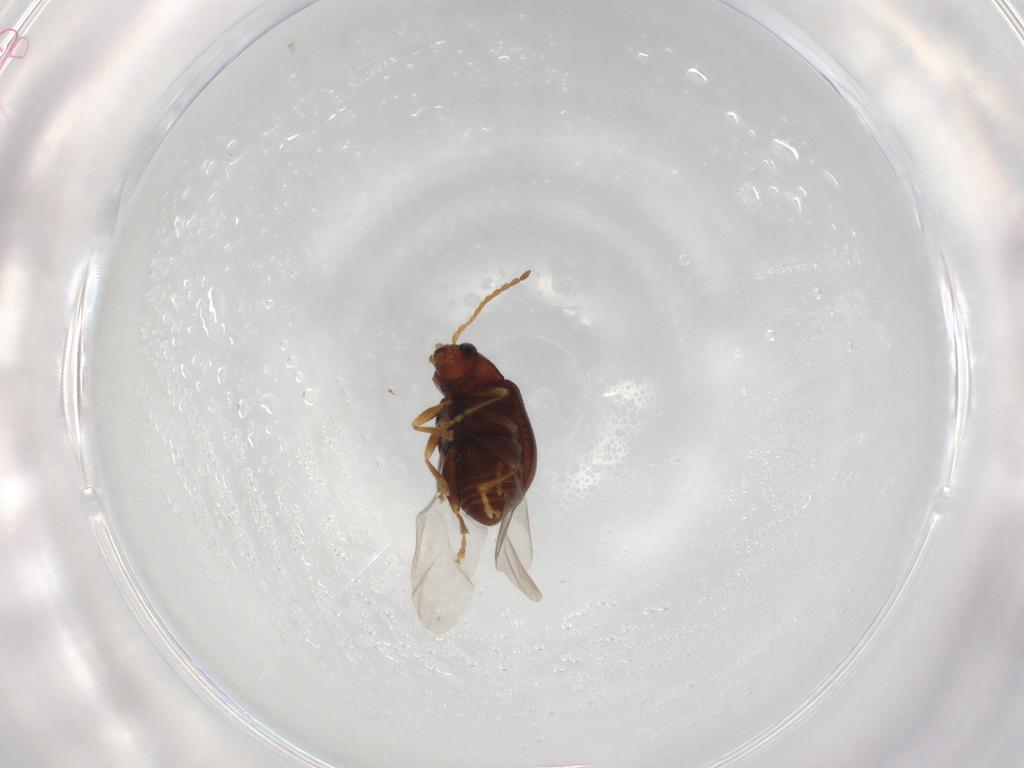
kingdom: Animalia
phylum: Arthropoda
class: Insecta
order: Coleoptera
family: Chrysomelidae
